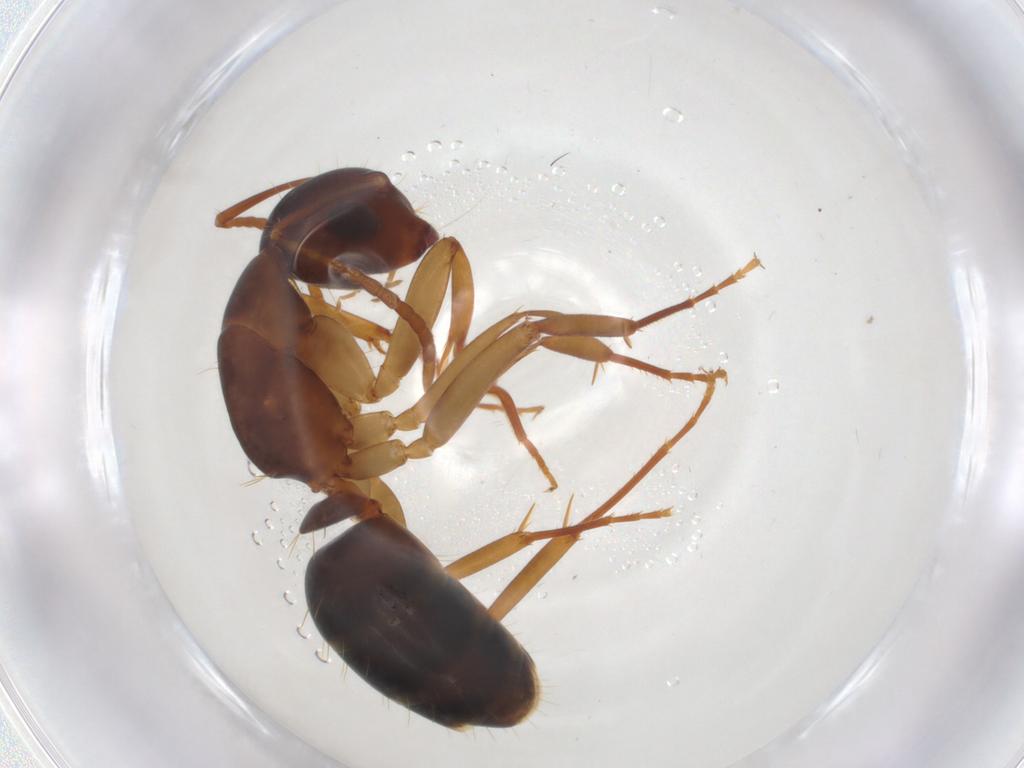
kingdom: Animalia
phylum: Arthropoda
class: Insecta
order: Hymenoptera
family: Formicidae
